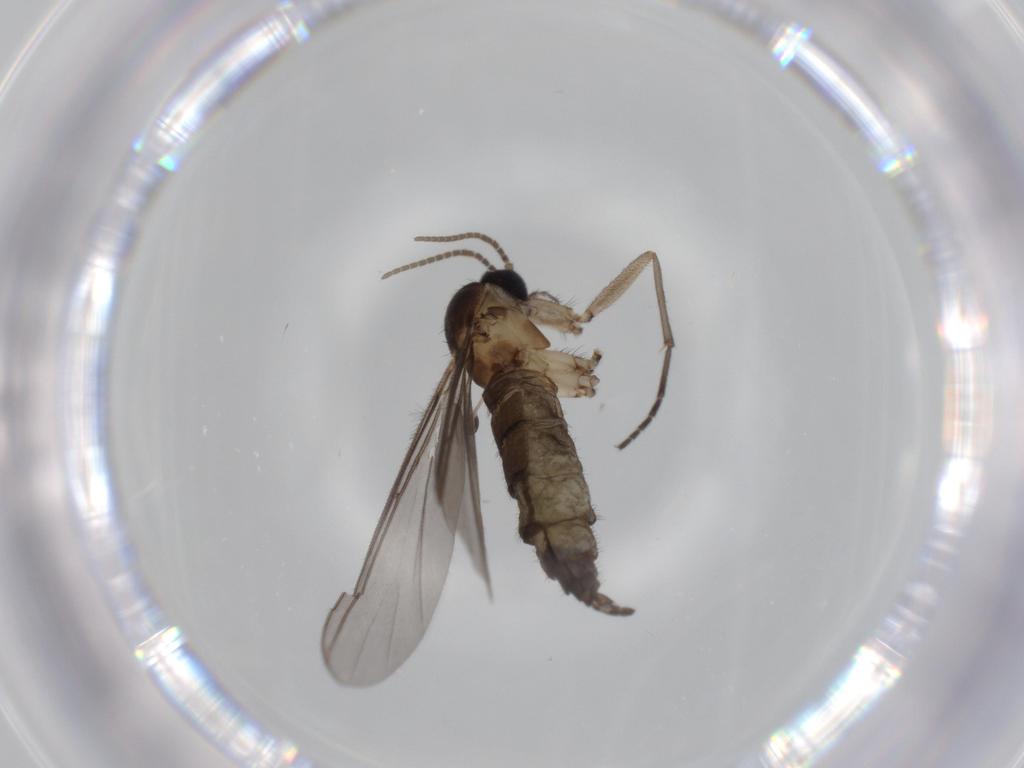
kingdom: Animalia
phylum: Arthropoda
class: Insecta
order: Diptera
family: Sciaridae
